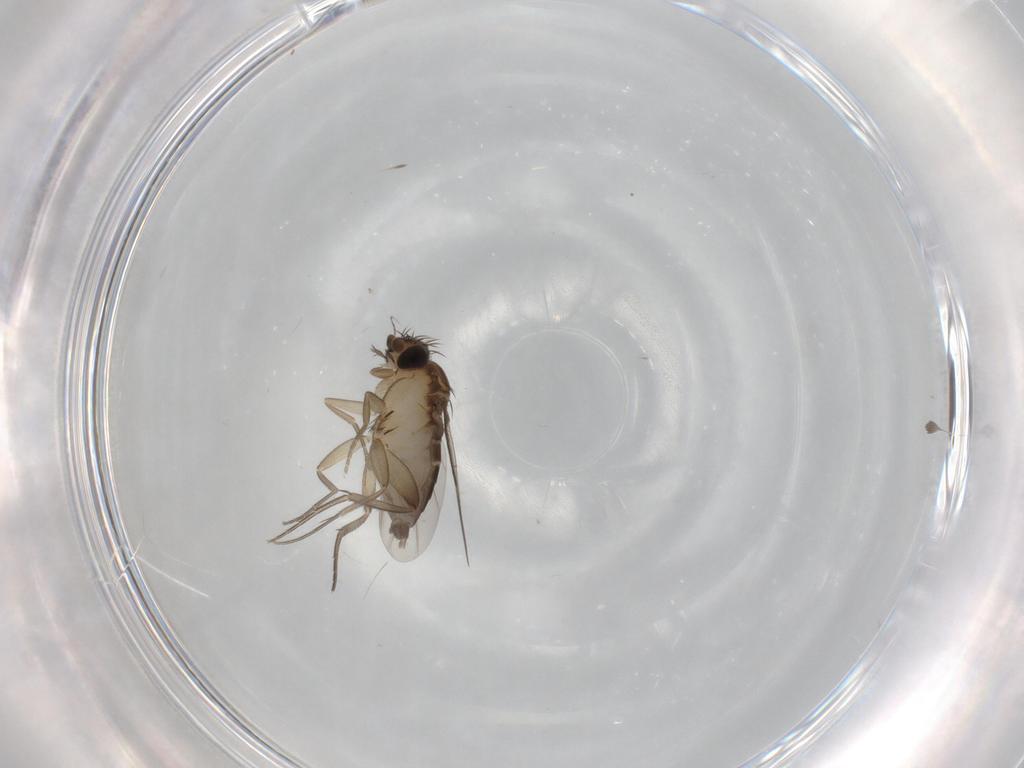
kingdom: Animalia
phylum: Arthropoda
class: Insecta
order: Diptera
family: Phoridae
